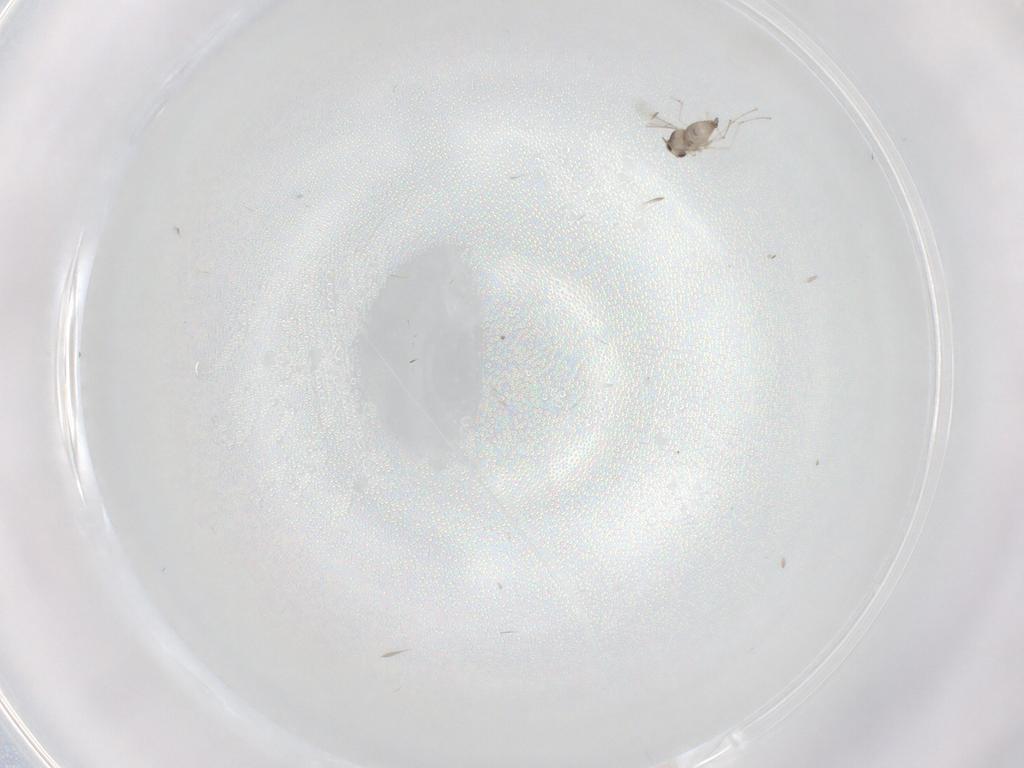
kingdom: Animalia
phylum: Arthropoda
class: Insecta
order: Diptera
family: Cecidomyiidae
